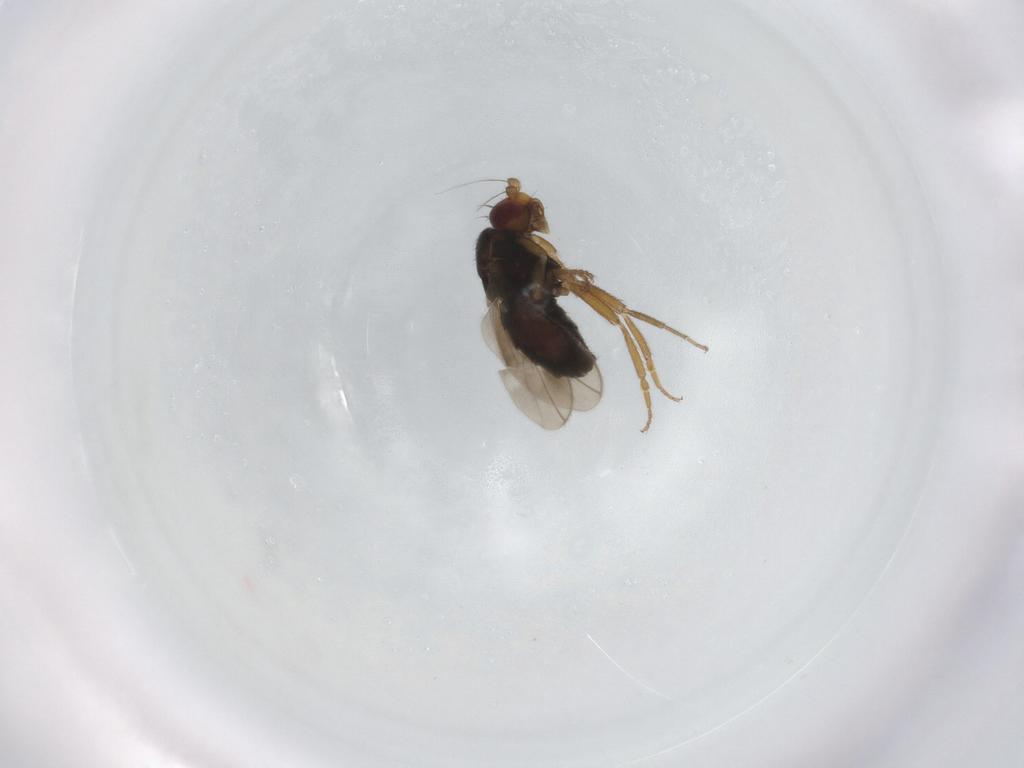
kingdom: Animalia
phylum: Arthropoda
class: Insecta
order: Diptera
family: Sphaeroceridae
